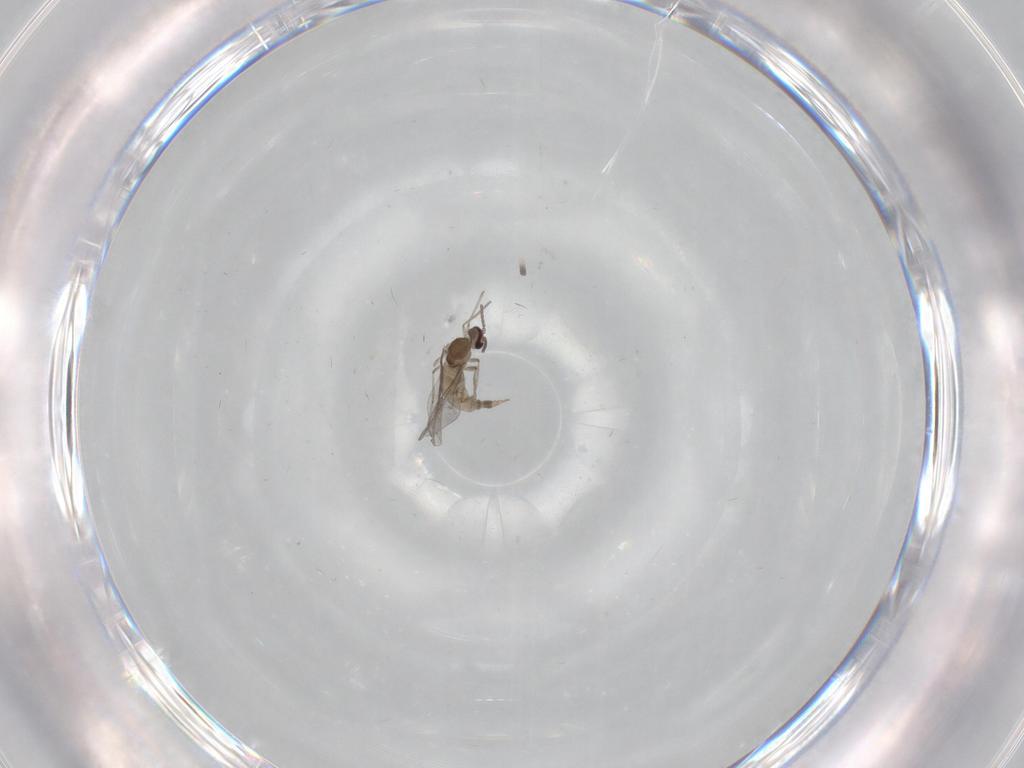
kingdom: Animalia
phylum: Arthropoda
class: Insecta
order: Diptera
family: Cecidomyiidae
